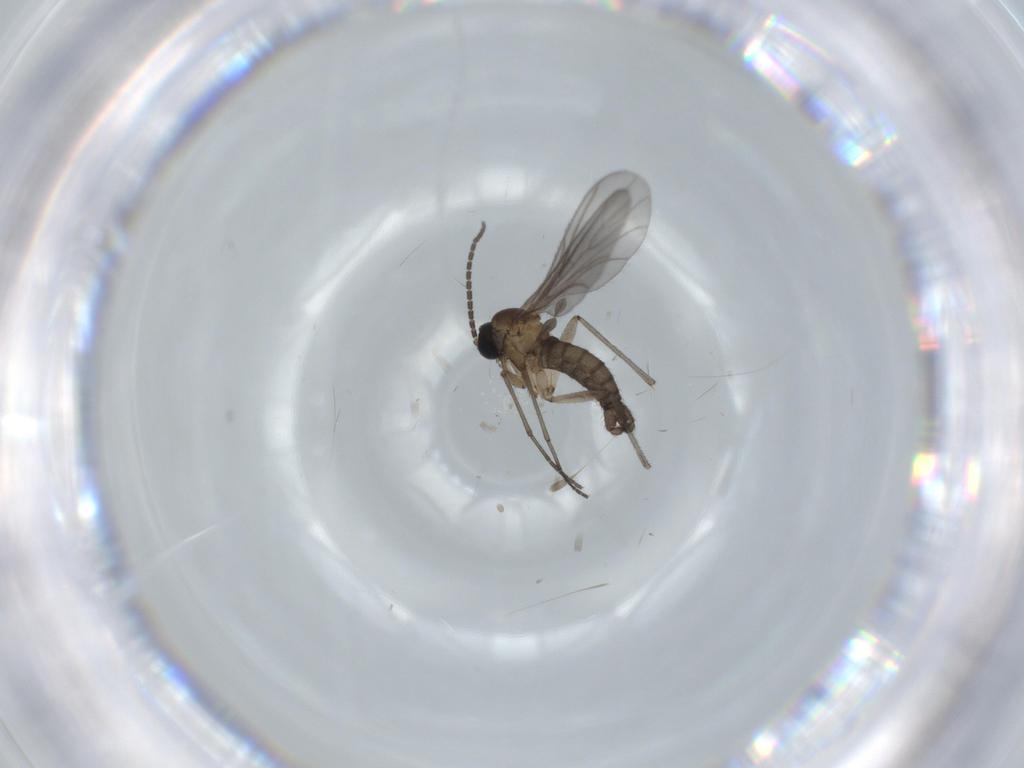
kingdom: Animalia
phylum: Arthropoda
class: Insecta
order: Diptera
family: Sciaridae
